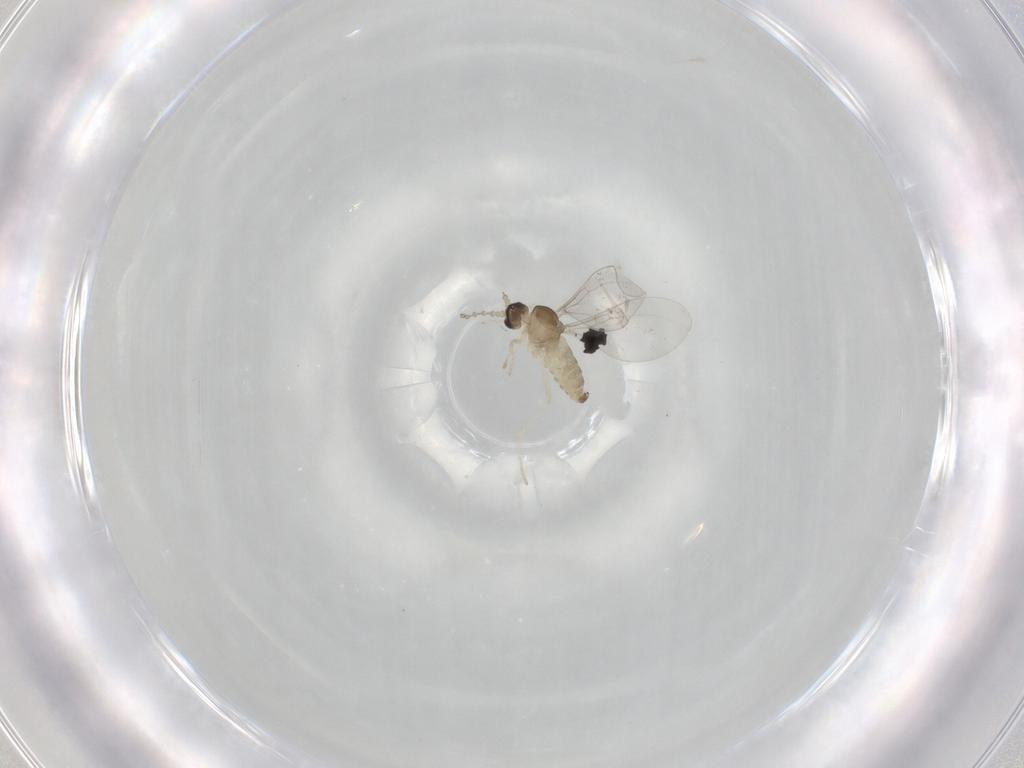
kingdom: Animalia
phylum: Arthropoda
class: Insecta
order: Diptera
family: Cecidomyiidae
